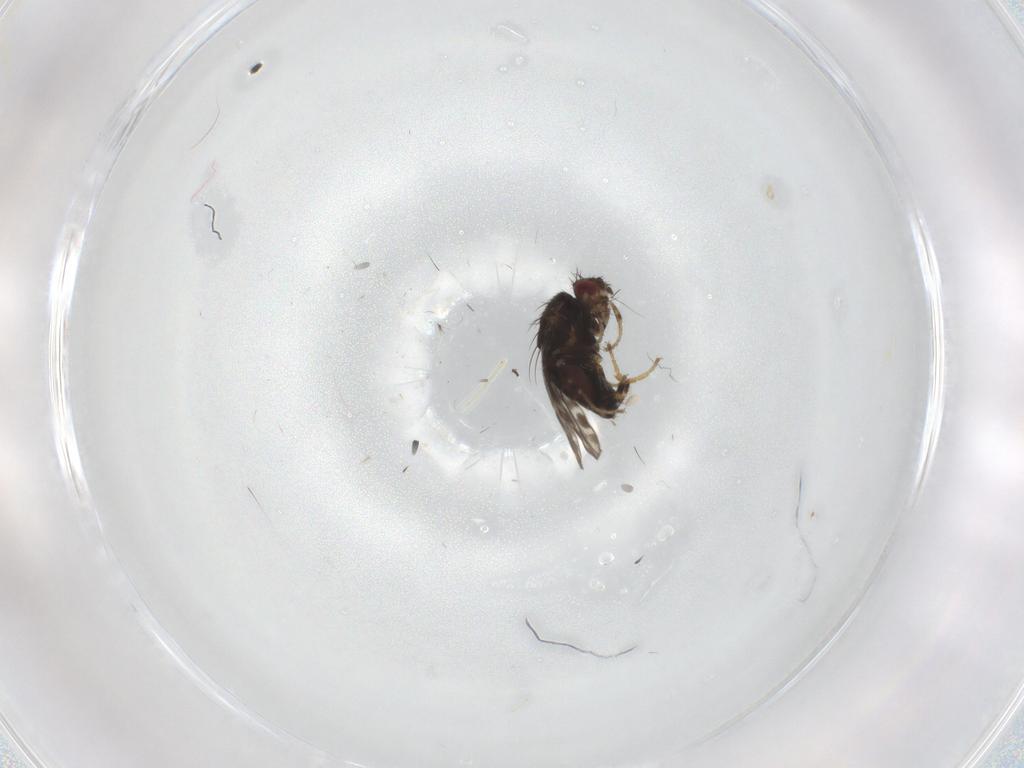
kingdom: Animalia
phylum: Arthropoda
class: Insecta
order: Diptera
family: Sphaeroceridae
